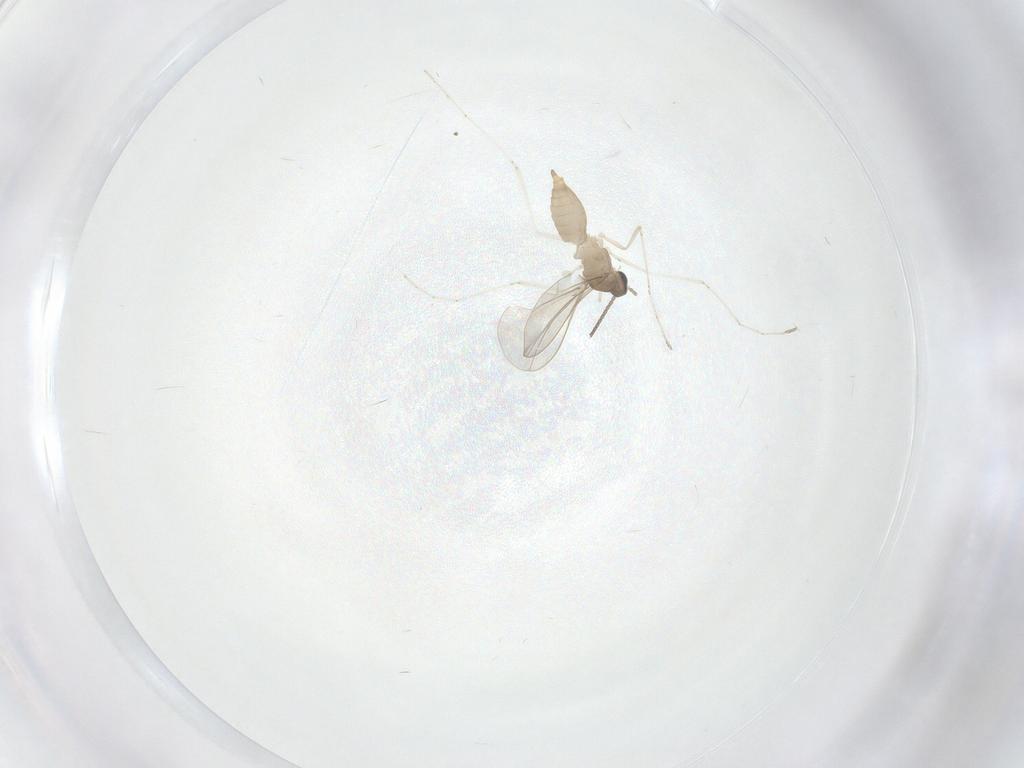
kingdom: Animalia
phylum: Arthropoda
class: Insecta
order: Diptera
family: Cecidomyiidae
